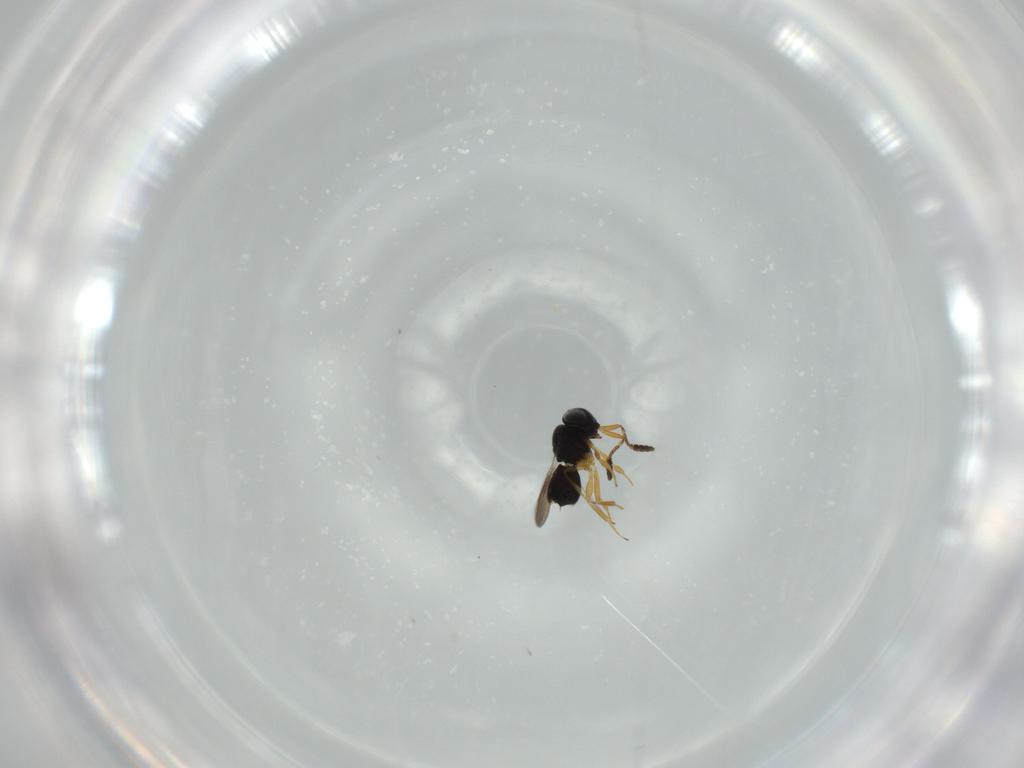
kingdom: Animalia
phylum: Arthropoda
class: Insecta
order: Hymenoptera
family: Scelionidae
